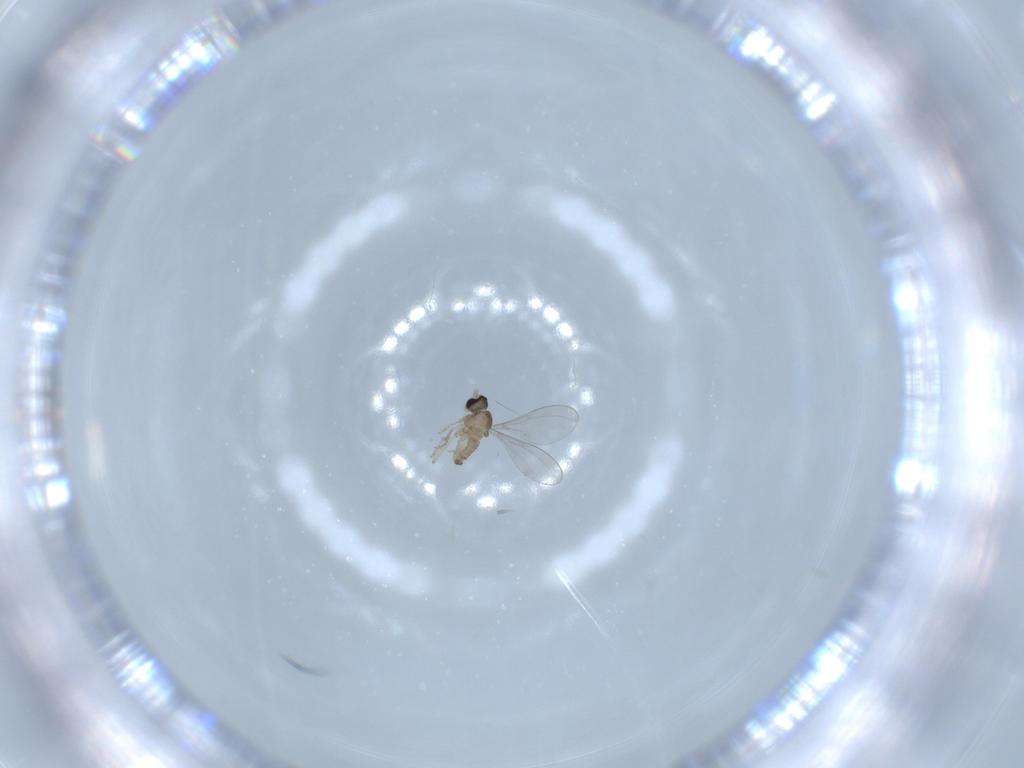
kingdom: Animalia
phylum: Arthropoda
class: Insecta
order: Diptera
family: Cecidomyiidae
